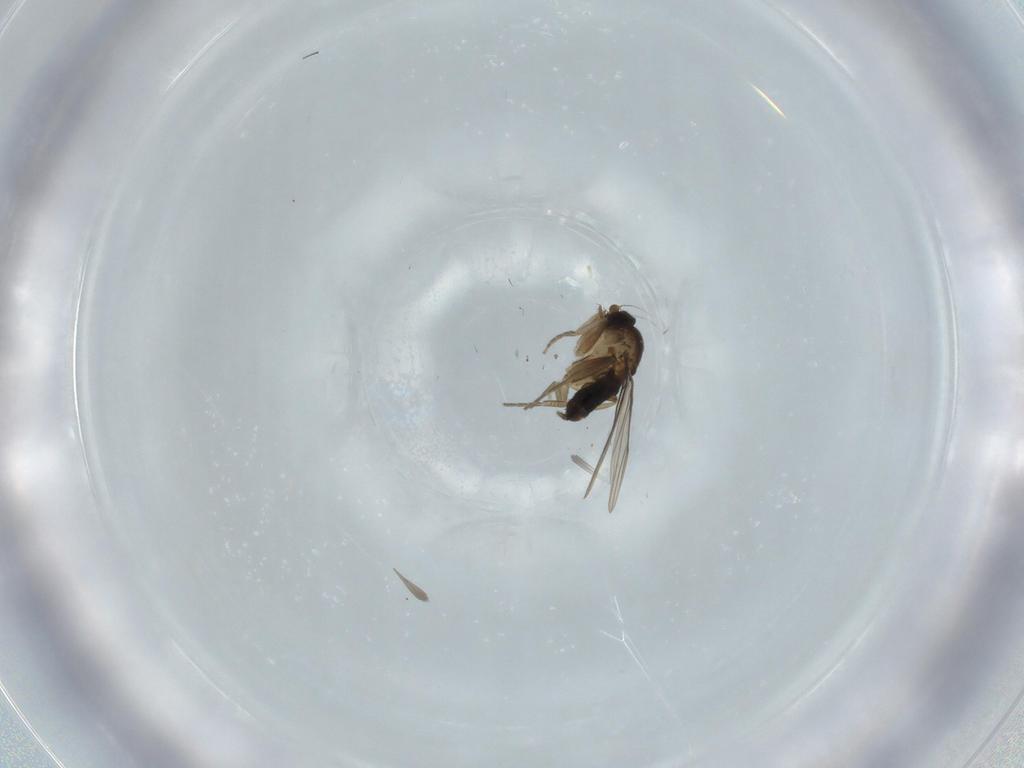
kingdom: Animalia
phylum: Arthropoda
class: Insecta
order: Diptera
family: Phoridae
